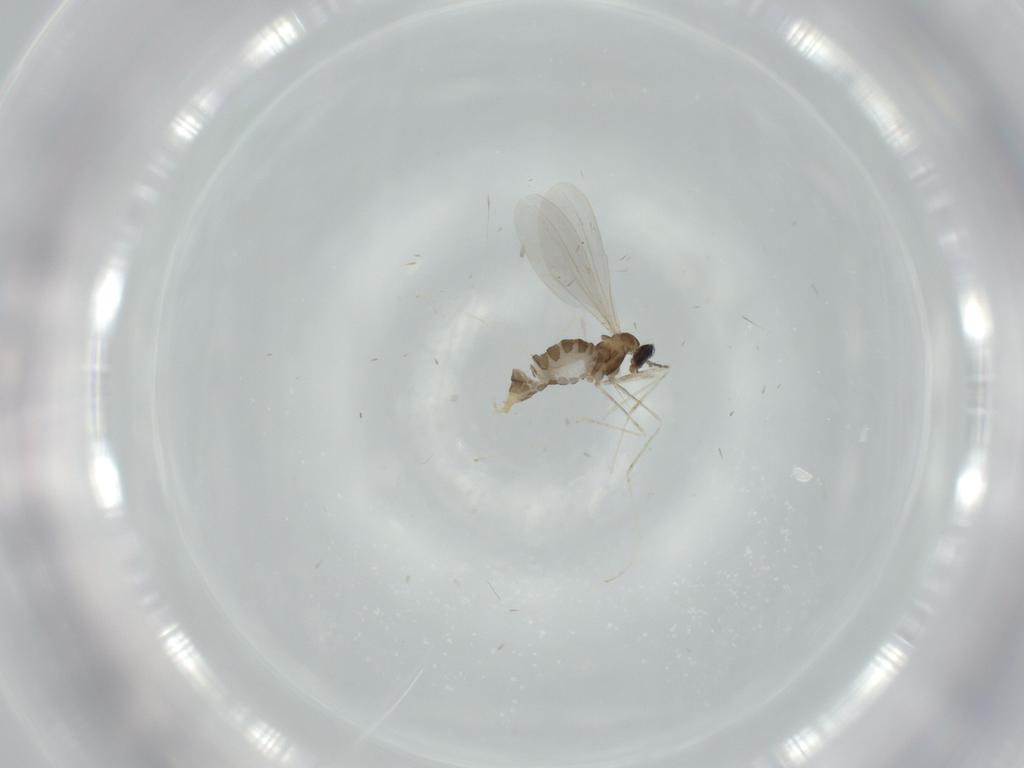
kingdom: Animalia
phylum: Arthropoda
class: Insecta
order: Diptera
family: Cecidomyiidae
